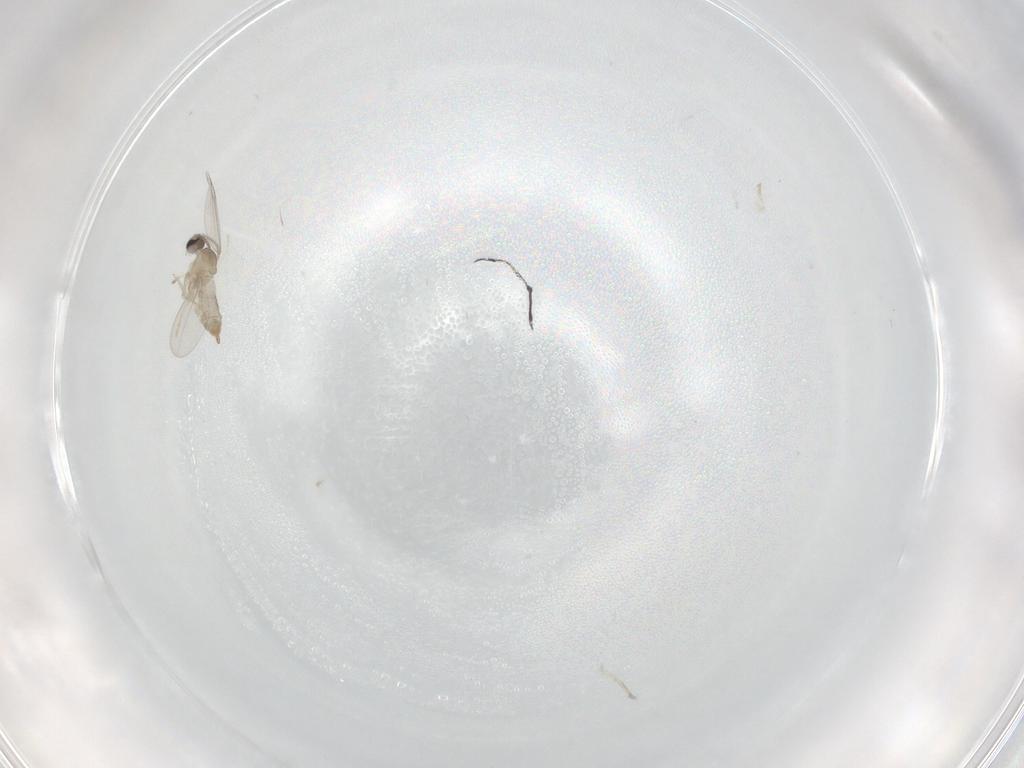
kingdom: Animalia
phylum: Arthropoda
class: Insecta
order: Diptera
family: Cecidomyiidae
